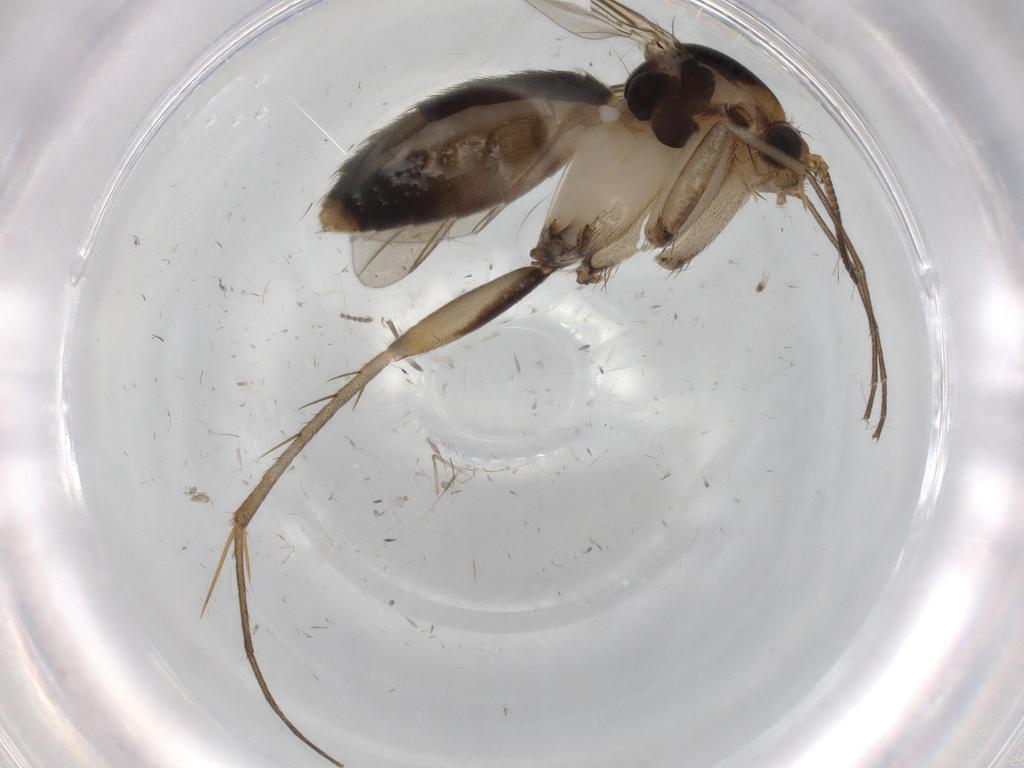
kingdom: Animalia
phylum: Arthropoda
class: Insecta
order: Diptera
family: Mycetophilidae
